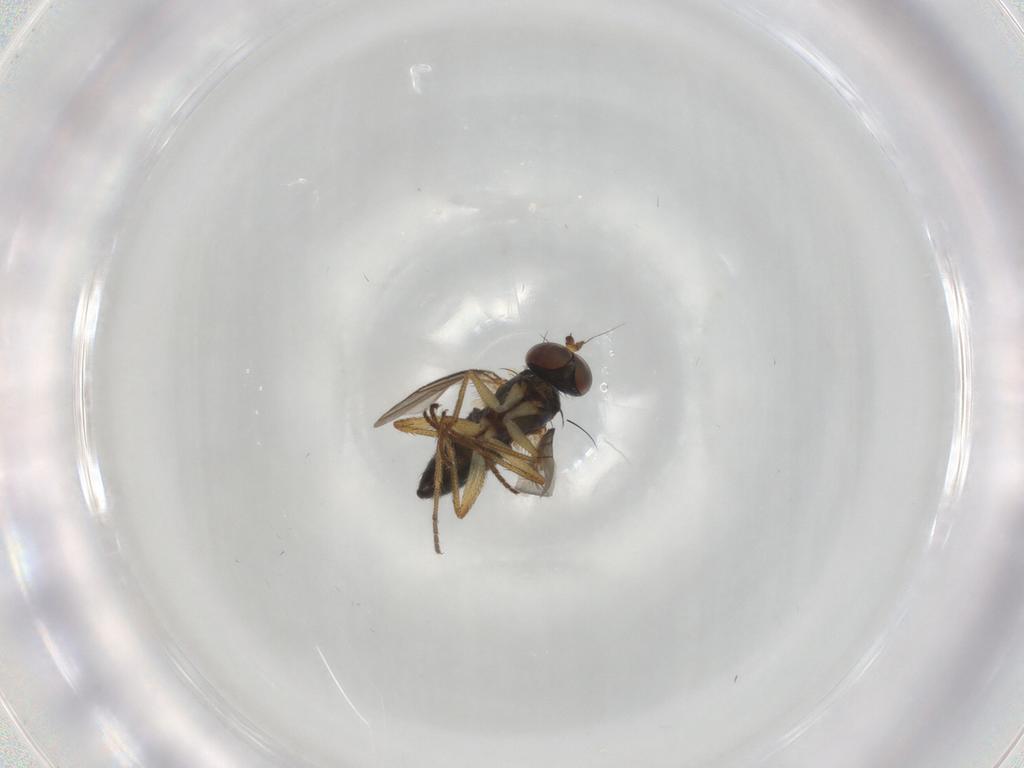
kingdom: Animalia
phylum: Arthropoda
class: Insecta
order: Diptera
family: Dolichopodidae
